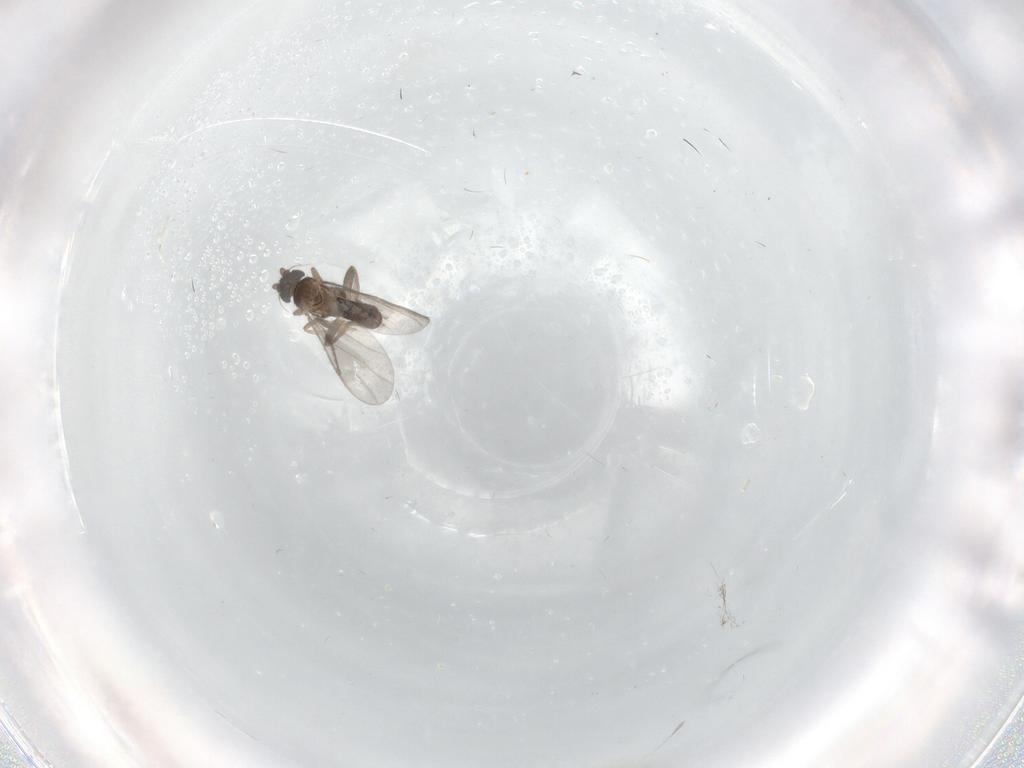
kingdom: Animalia
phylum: Arthropoda
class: Insecta
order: Diptera
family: Cecidomyiidae
